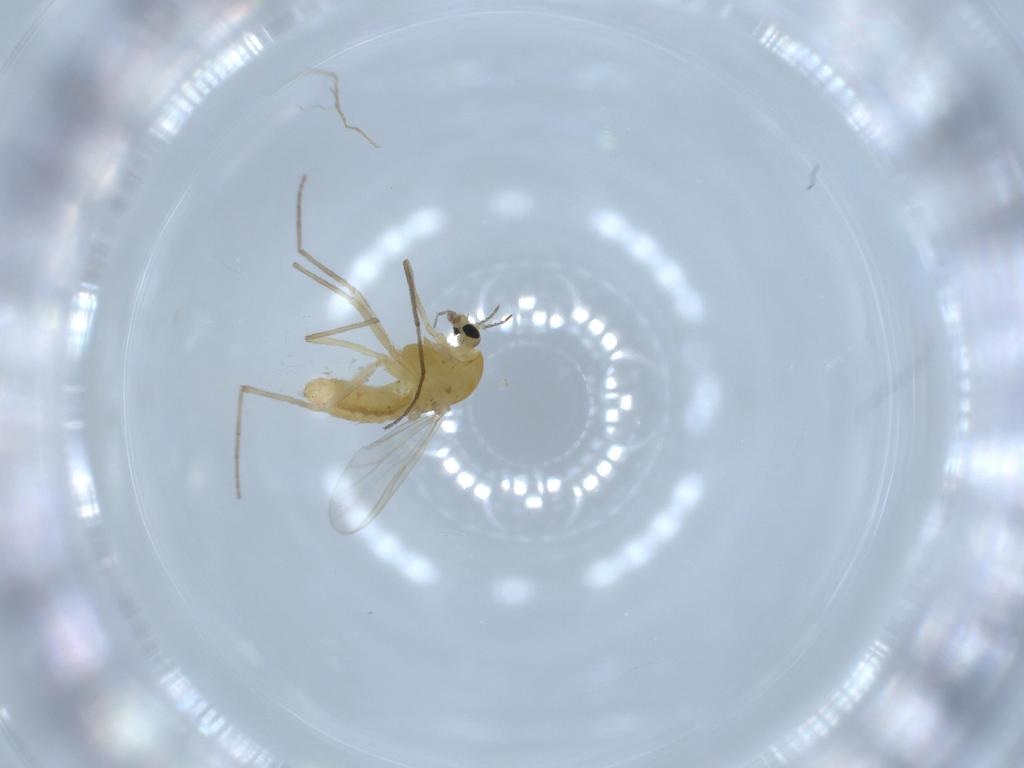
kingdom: Animalia
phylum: Arthropoda
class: Insecta
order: Diptera
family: Chironomidae
